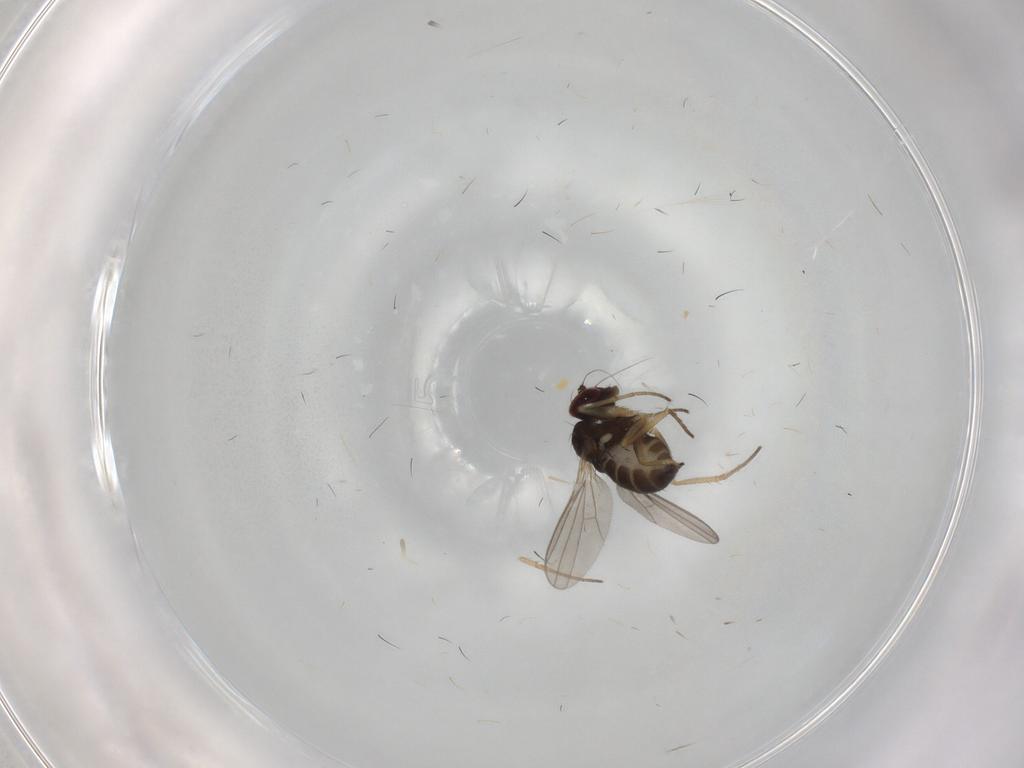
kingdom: Animalia
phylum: Arthropoda
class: Insecta
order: Diptera
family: Dolichopodidae
